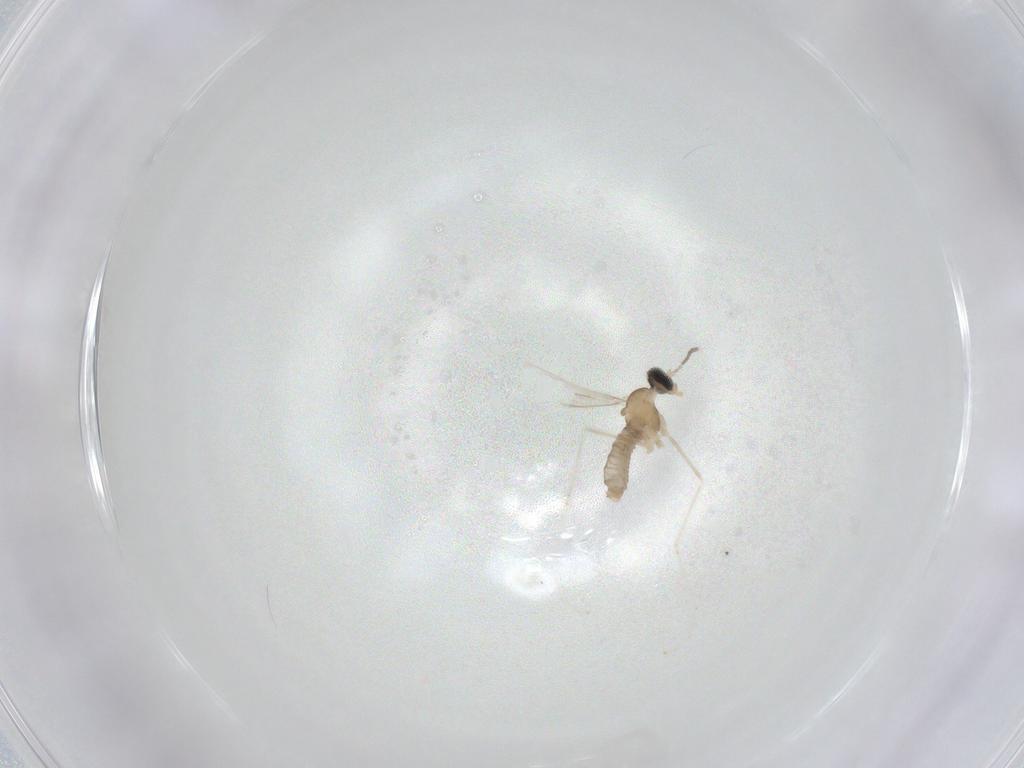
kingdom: Animalia
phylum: Arthropoda
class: Insecta
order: Diptera
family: Cecidomyiidae
